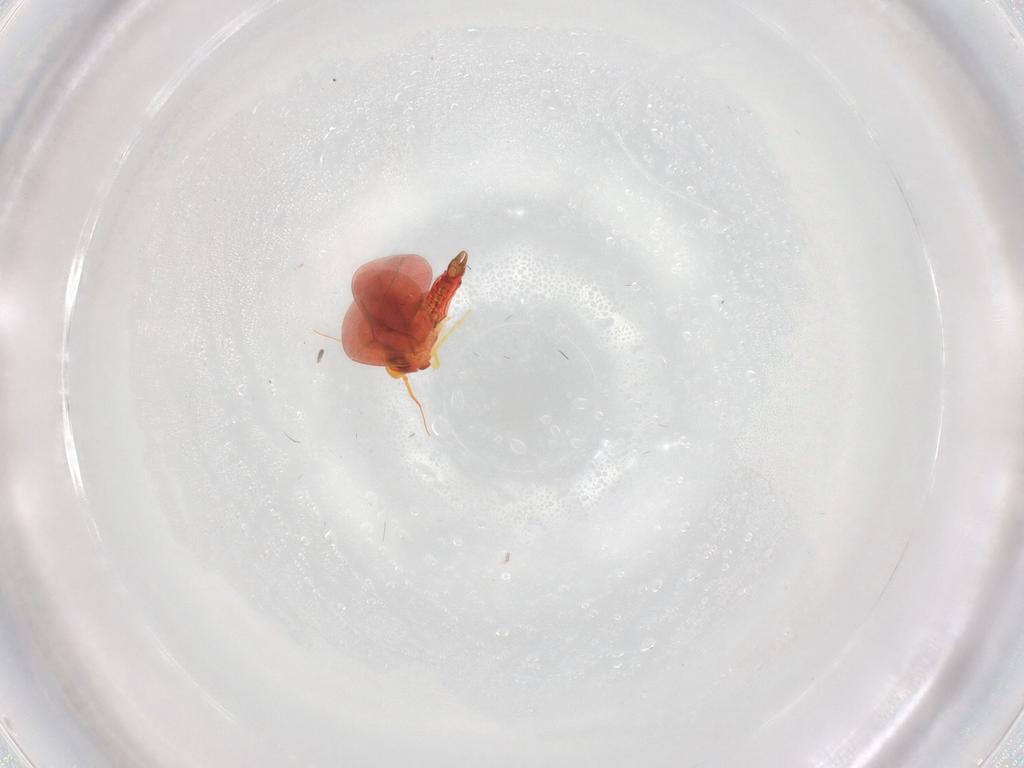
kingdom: Animalia
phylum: Arthropoda
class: Insecta
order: Hemiptera
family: Aleyrodidae
